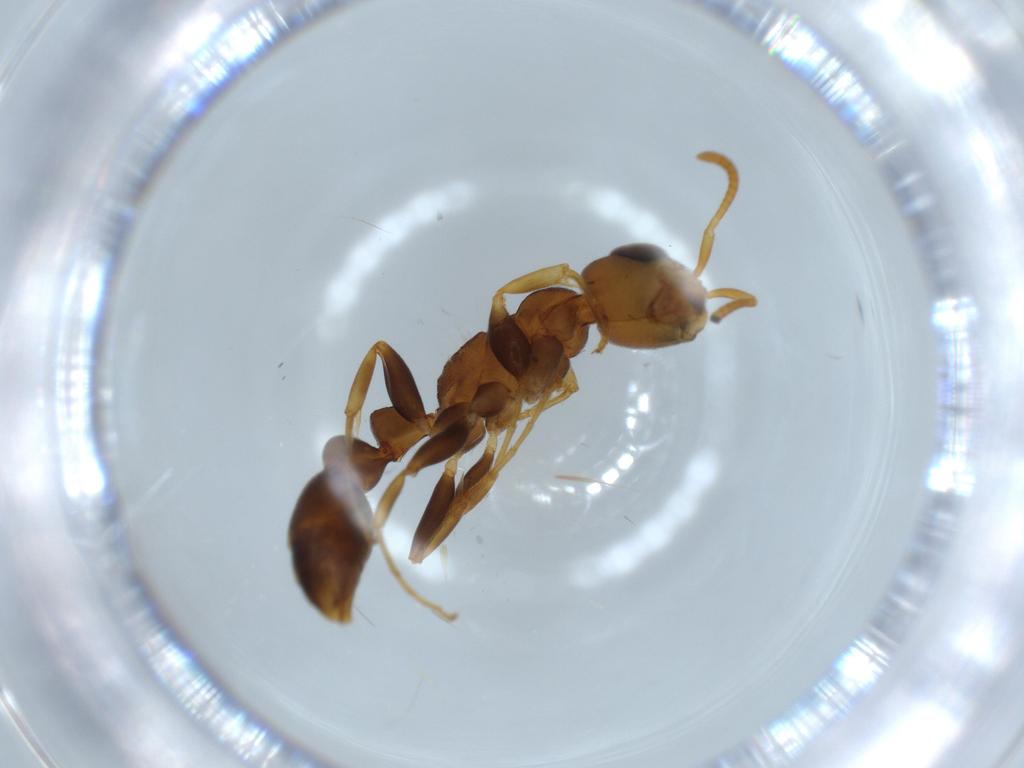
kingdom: Animalia
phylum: Arthropoda
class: Insecta
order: Hymenoptera
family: Formicidae
